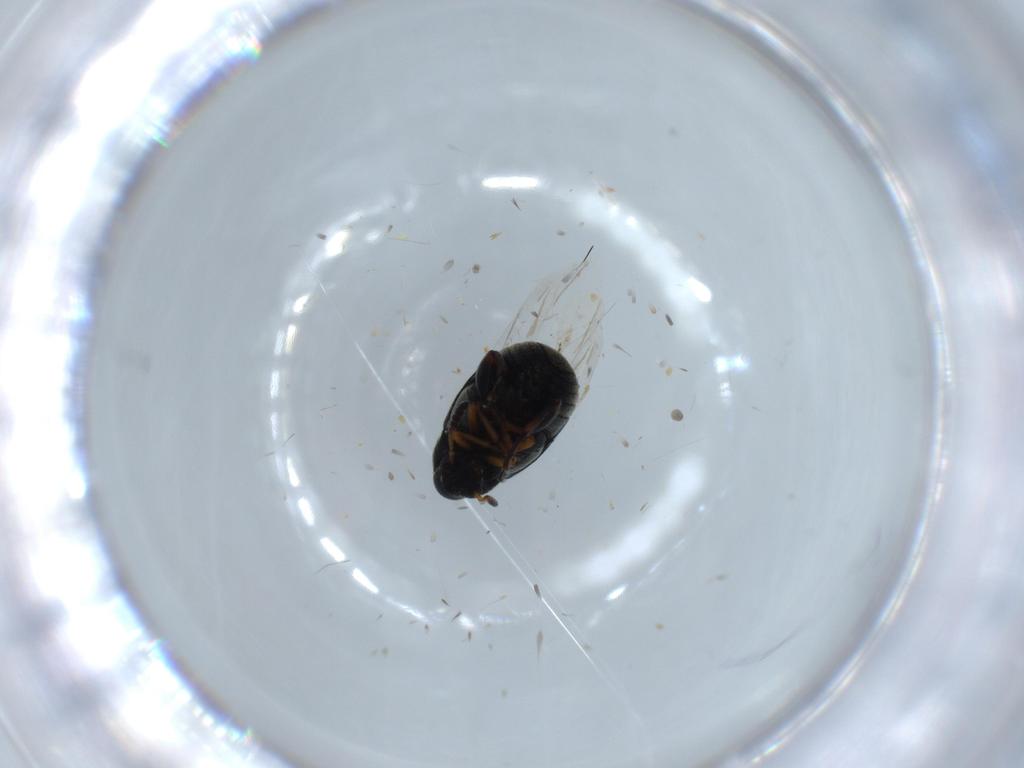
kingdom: Animalia
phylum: Arthropoda
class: Insecta
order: Coleoptera
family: Chrysomelidae
